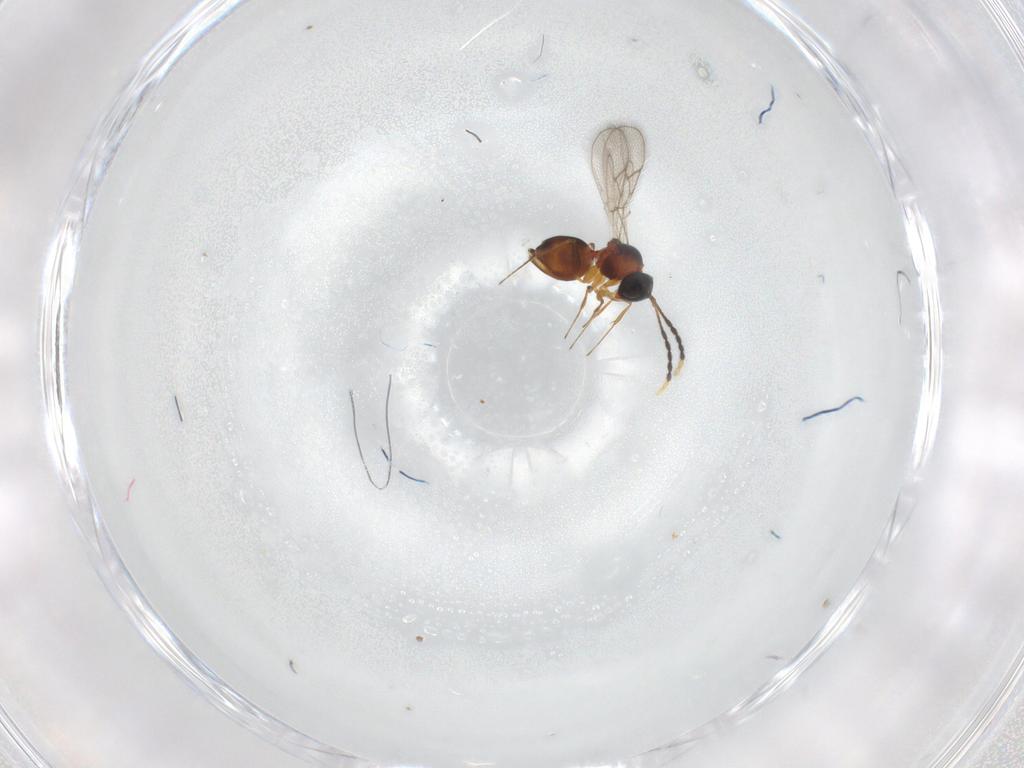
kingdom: Animalia
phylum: Arthropoda
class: Insecta
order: Hymenoptera
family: Figitidae
